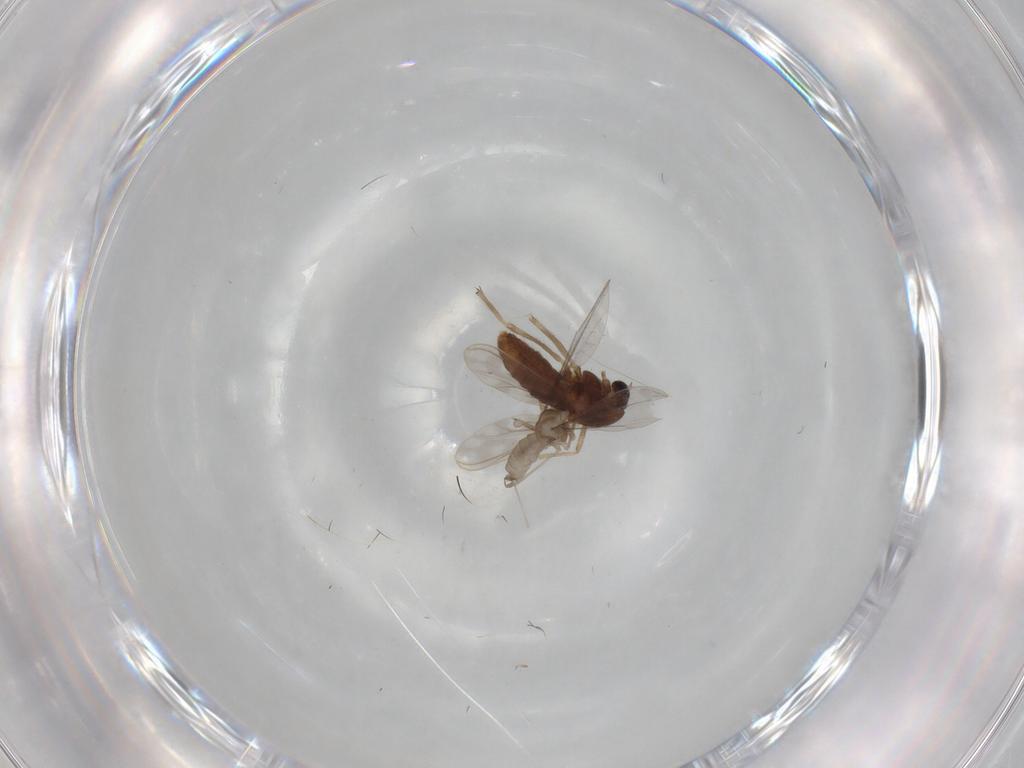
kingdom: Animalia
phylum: Arthropoda
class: Insecta
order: Diptera
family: Chironomidae
